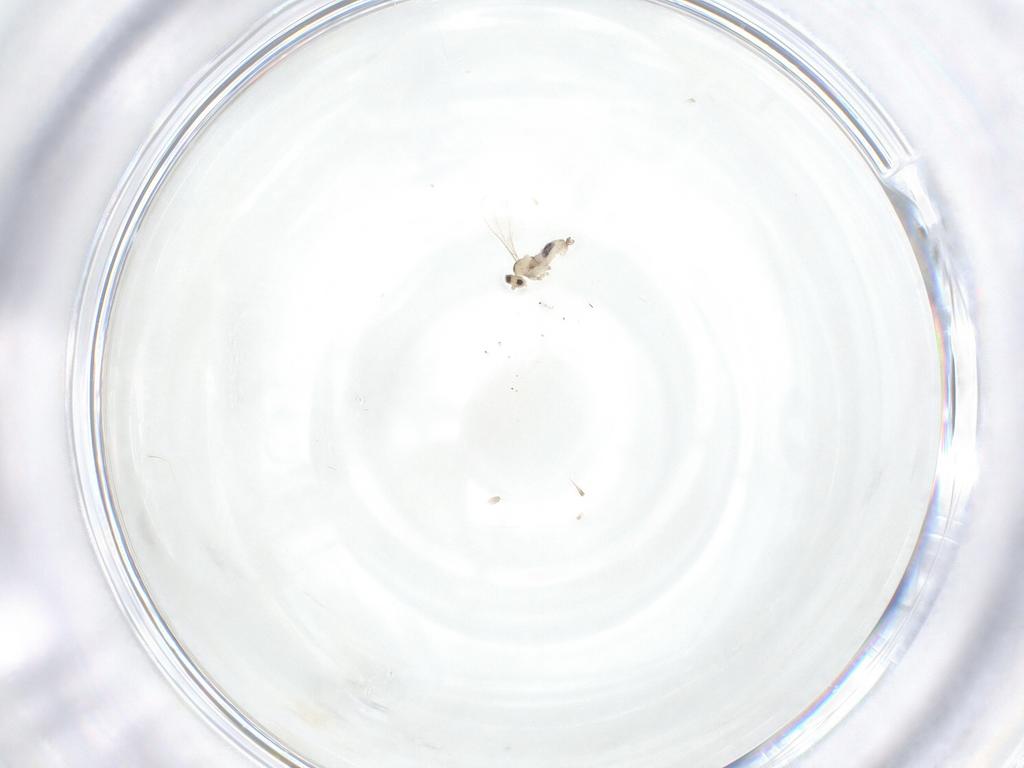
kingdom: Animalia
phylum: Arthropoda
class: Insecta
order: Diptera
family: Cecidomyiidae
